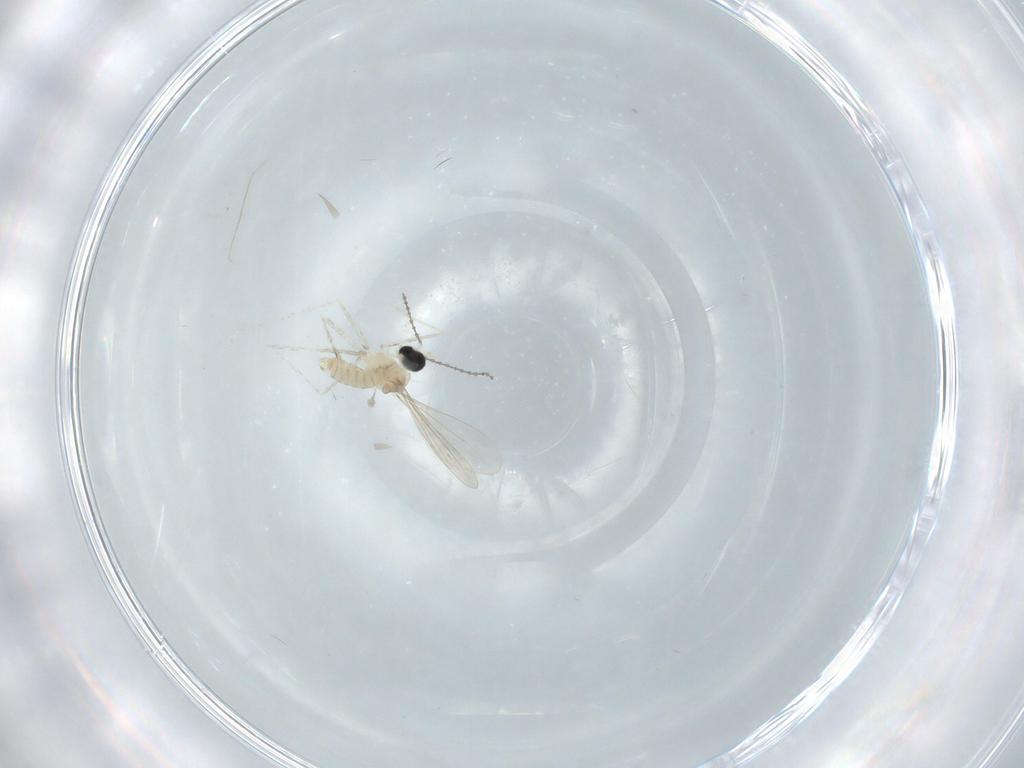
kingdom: Animalia
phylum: Arthropoda
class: Insecta
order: Diptera
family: Cecidomyiidae
